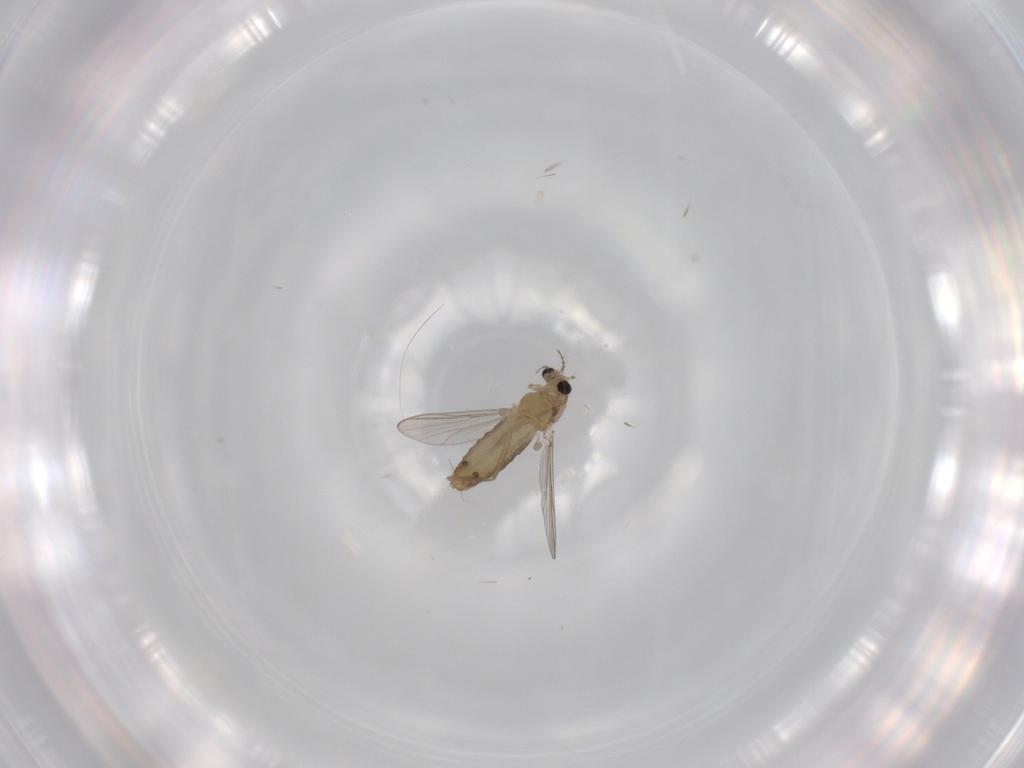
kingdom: Animalia
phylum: Arthropoda
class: Insecta
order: Diptera
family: Chironomidae
